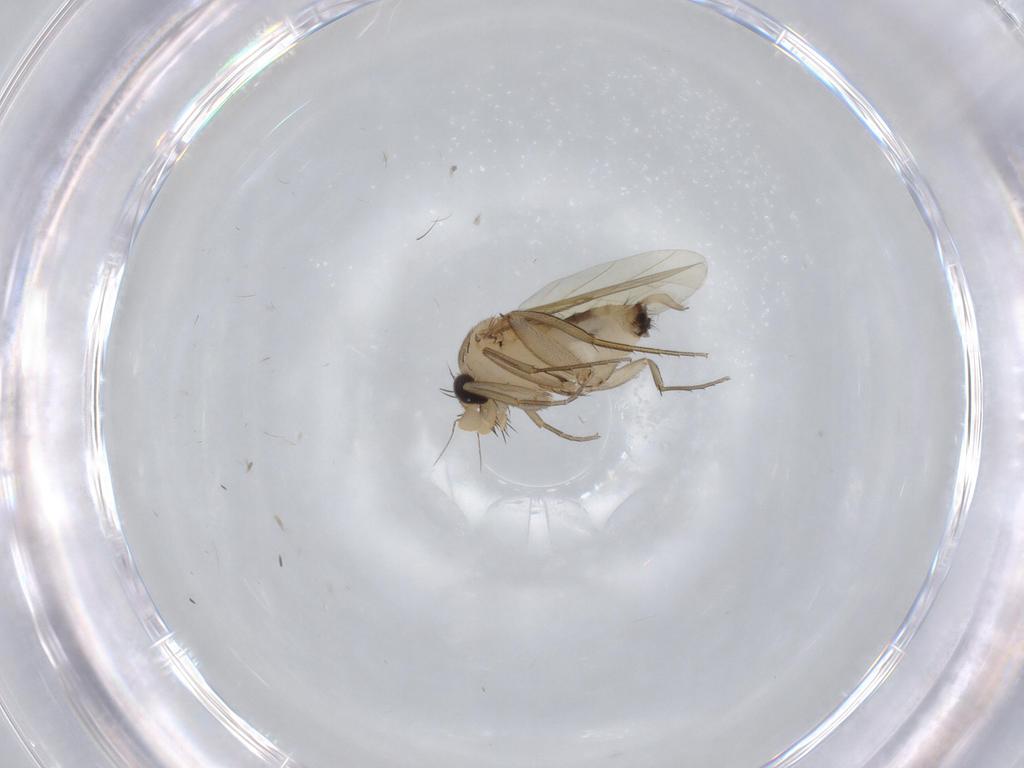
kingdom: Animalia
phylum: Arthropoda
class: Insecta
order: Diptera
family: Phoridae
